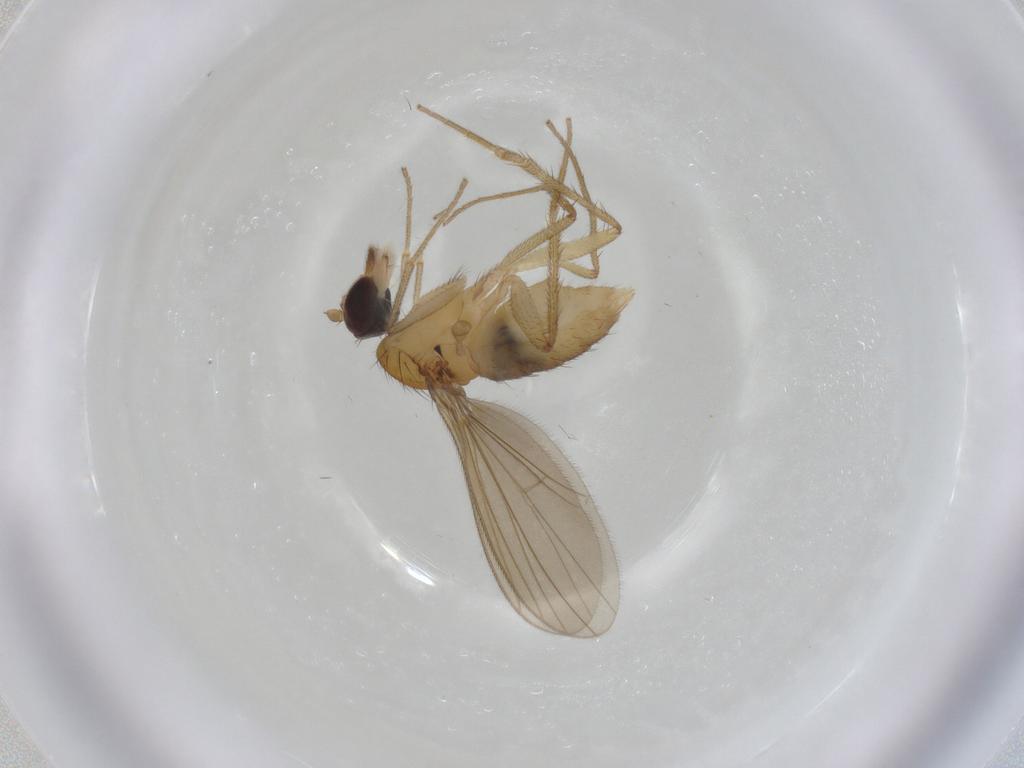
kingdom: Animalia
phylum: Arthropoda
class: Insecta
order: Diptera
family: Dolichopodidae
